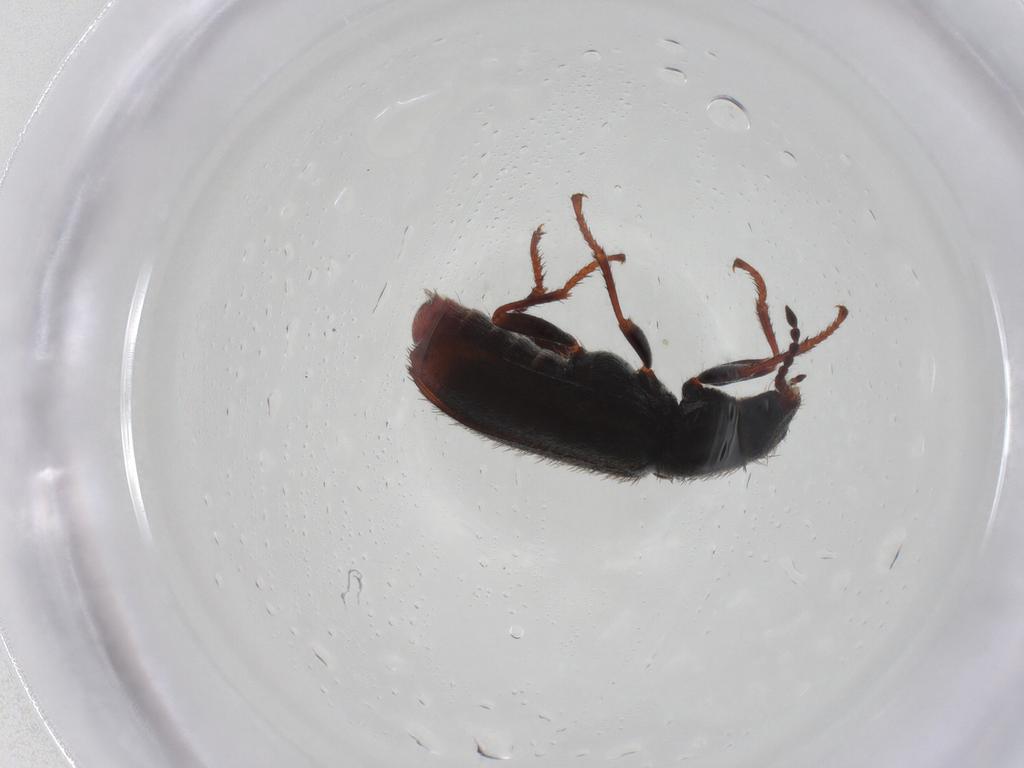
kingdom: Animalia
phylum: Arthropoda
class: Insecta
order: Coleoptera
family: Melyridae
